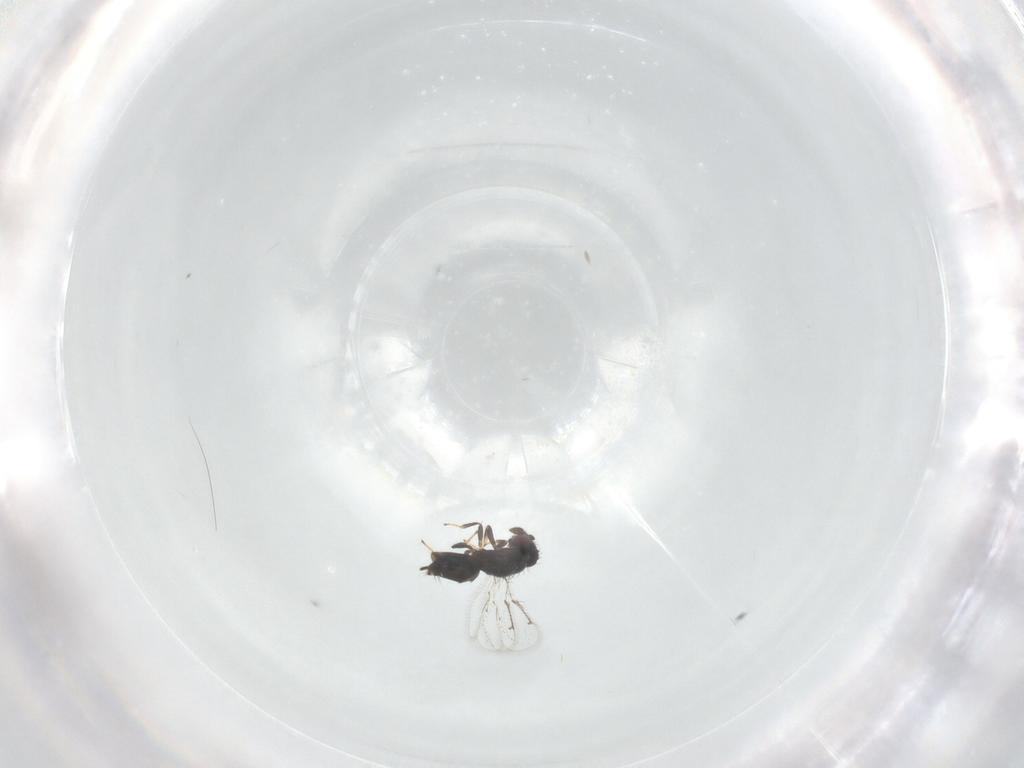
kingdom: Animalia
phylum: Arthropoda
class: Insecta
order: Hymenoptera
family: Pirenidae
